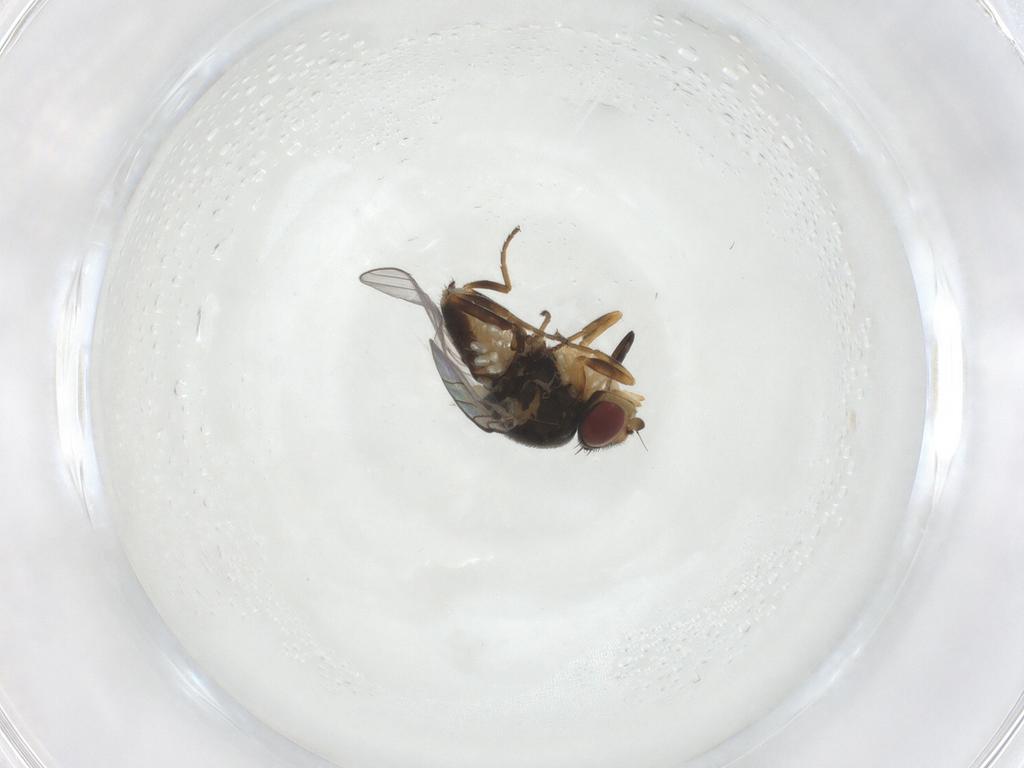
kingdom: Animalia
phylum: Arthropoda
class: Insecta
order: Diptera
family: Chloropidae
